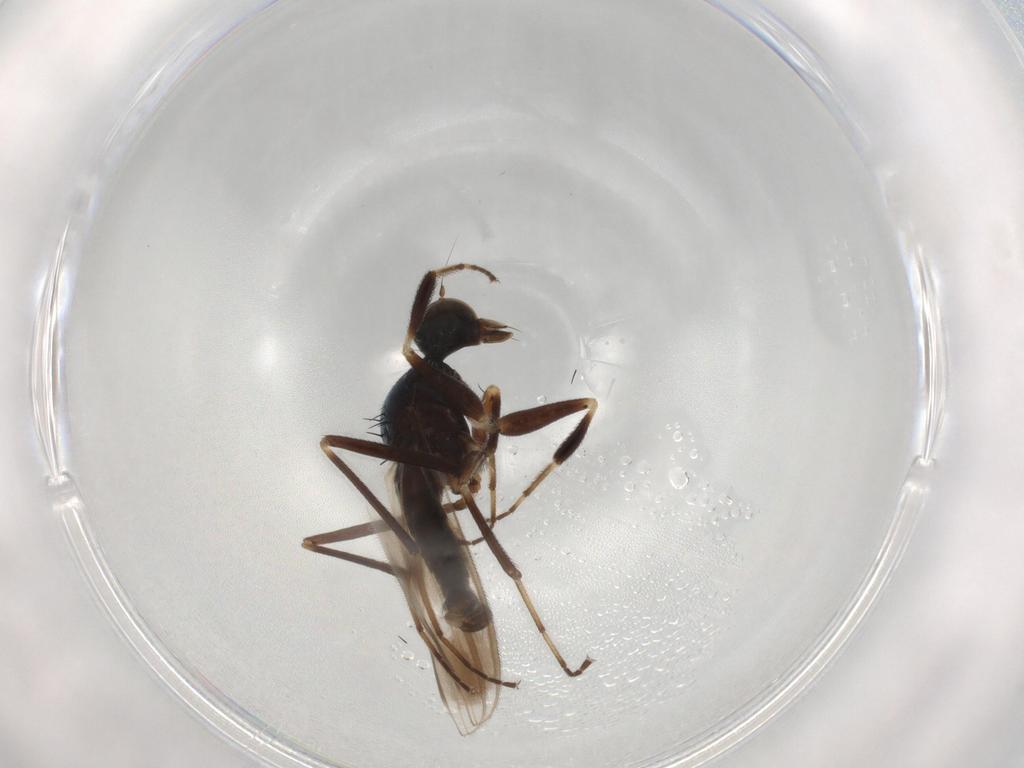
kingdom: Animalia
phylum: Arthropoda
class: Insecta
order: Diptera
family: Hybotidae
